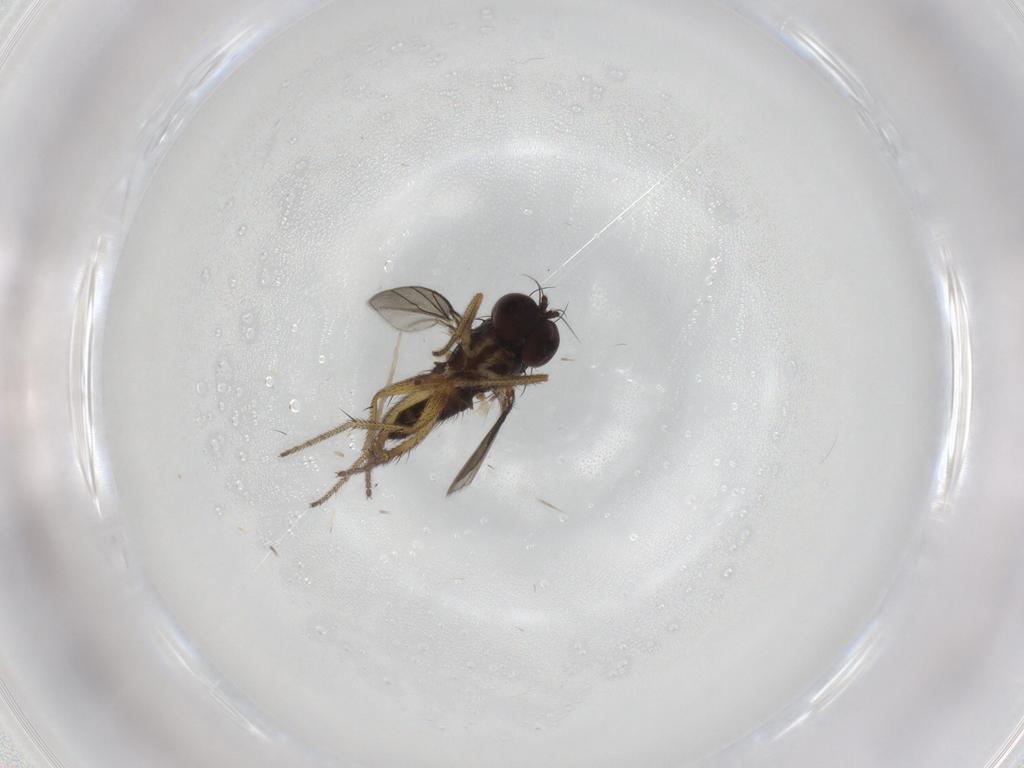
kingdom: Animalia
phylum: Arthropoda
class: Insecta
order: Diptera
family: Dolichopodidae
